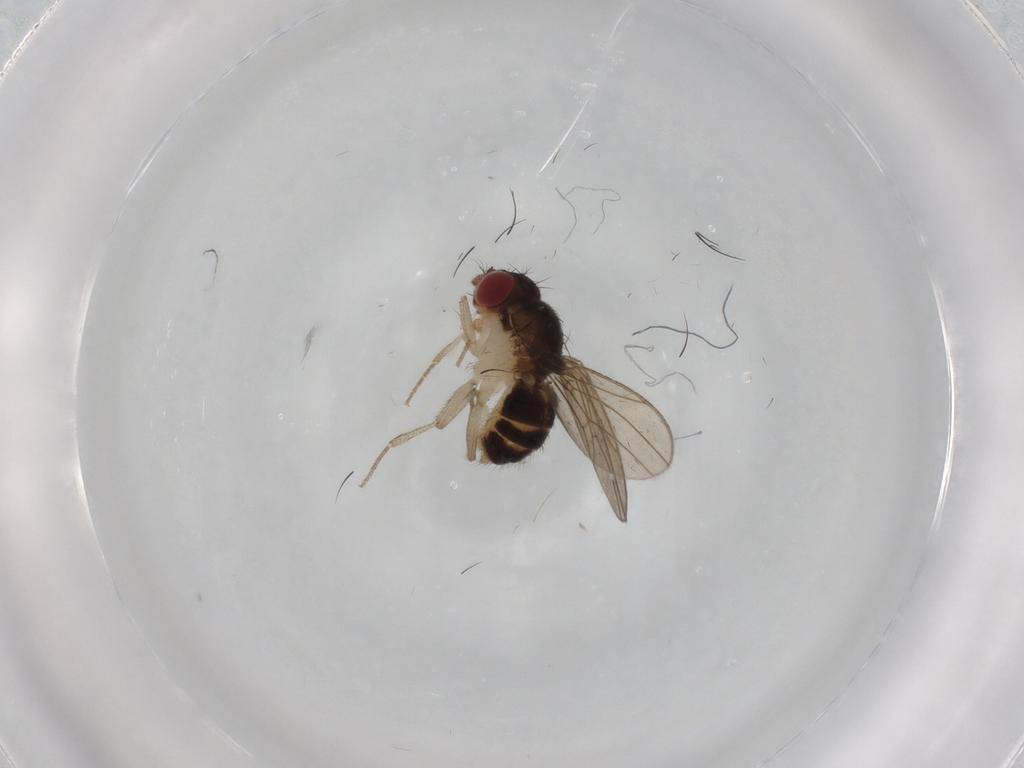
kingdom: Animalia
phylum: Arthropoda
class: Insecta
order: Diptera
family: Drosophilidae
